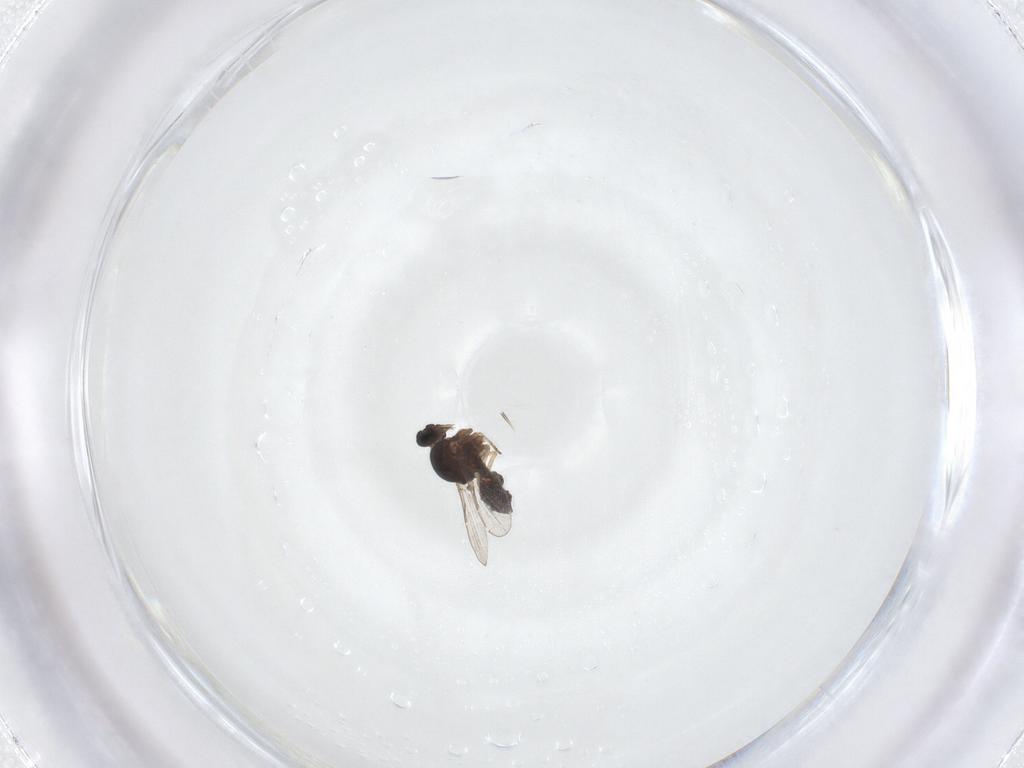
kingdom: Animalia
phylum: Arthropoda
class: Insecta
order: Diptera
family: Ceratopogonidae
